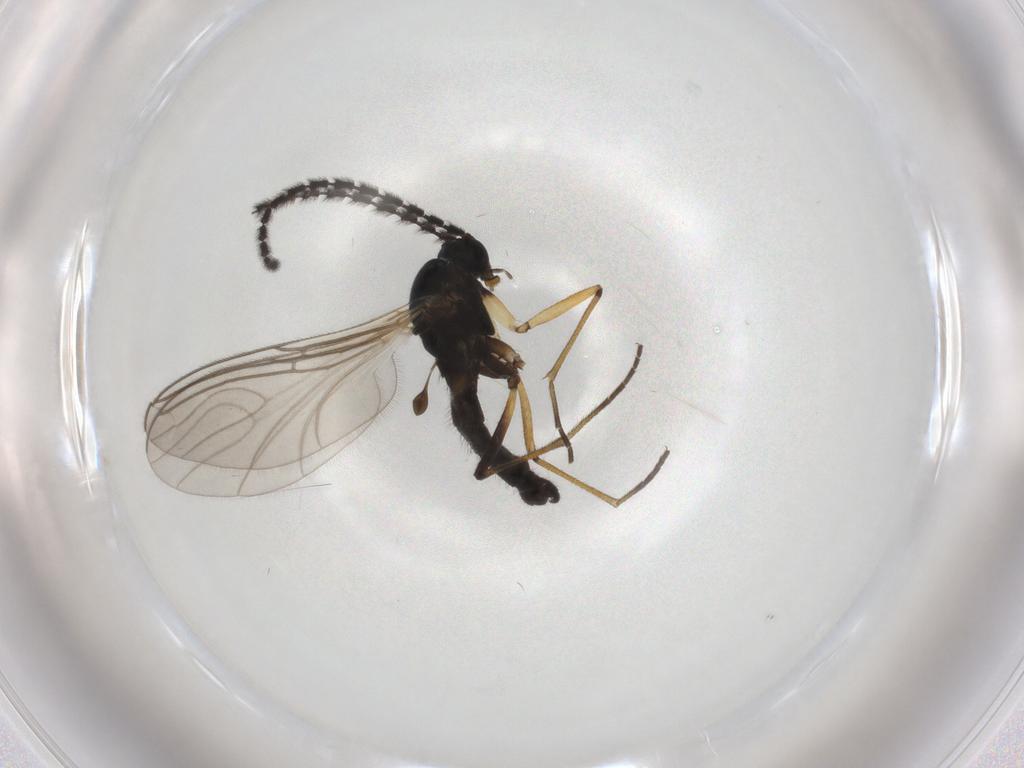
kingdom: Animalia
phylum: Arthropoda
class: Insecta
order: Diptera
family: Sciaridae
